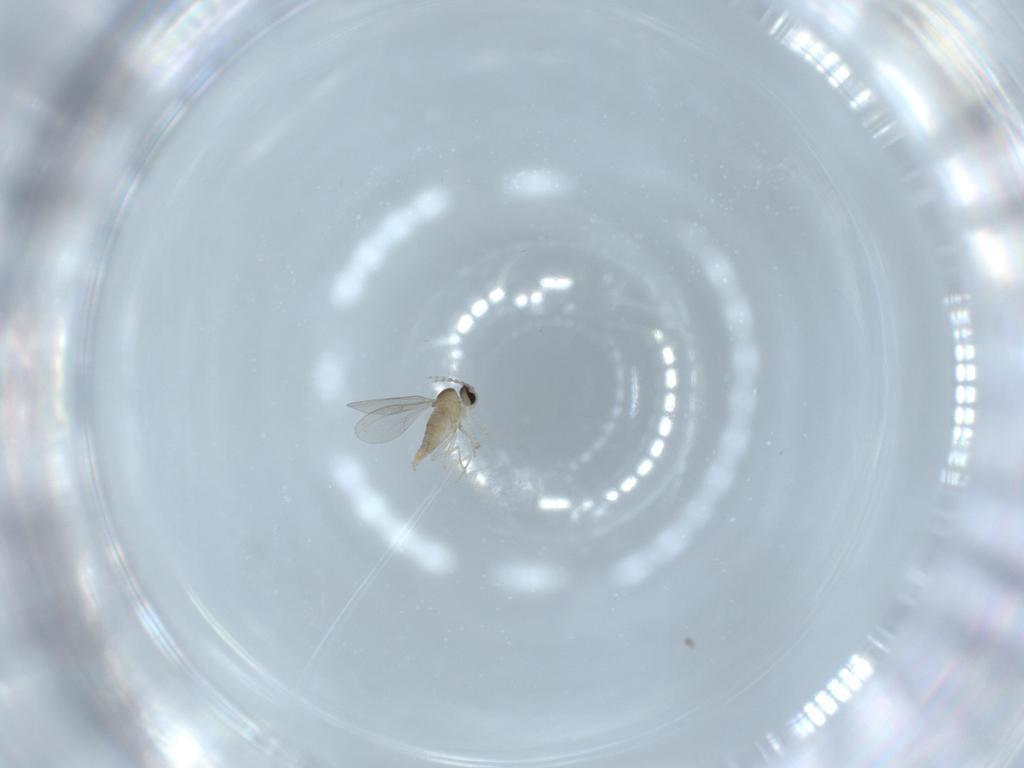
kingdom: Animalia
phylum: Arthropoda
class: Insecta
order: Diptera
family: Cecidomyiidae
